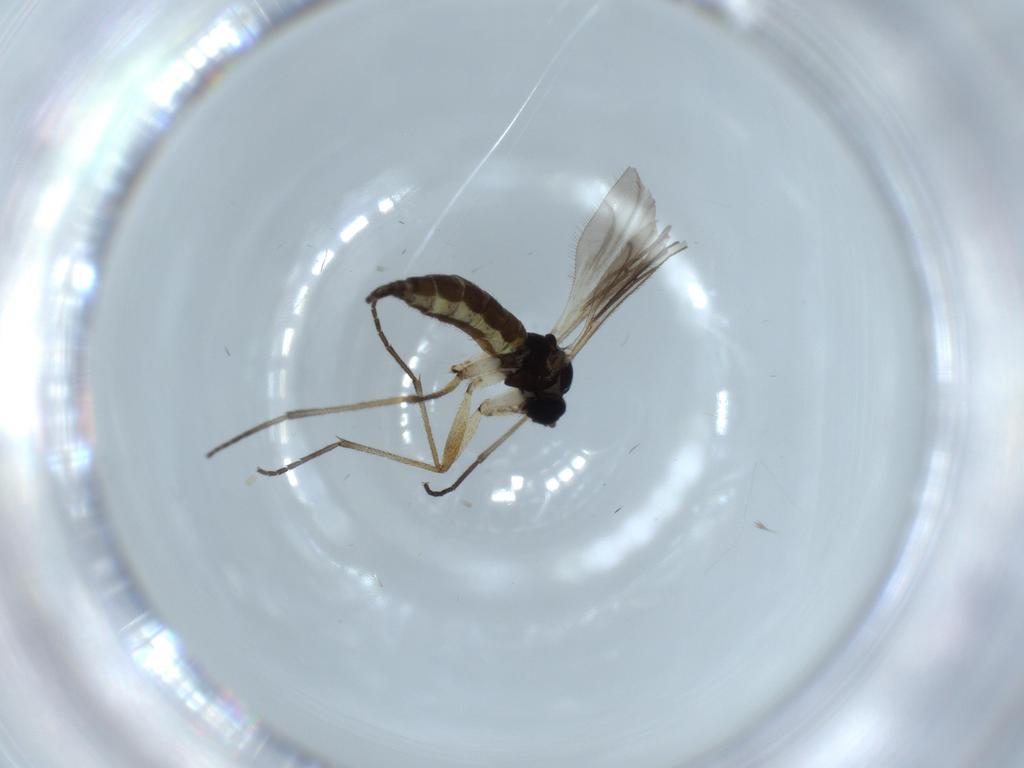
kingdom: Animalia
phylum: Arthropoda
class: Insecta
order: Diptera
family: Sciaridae
